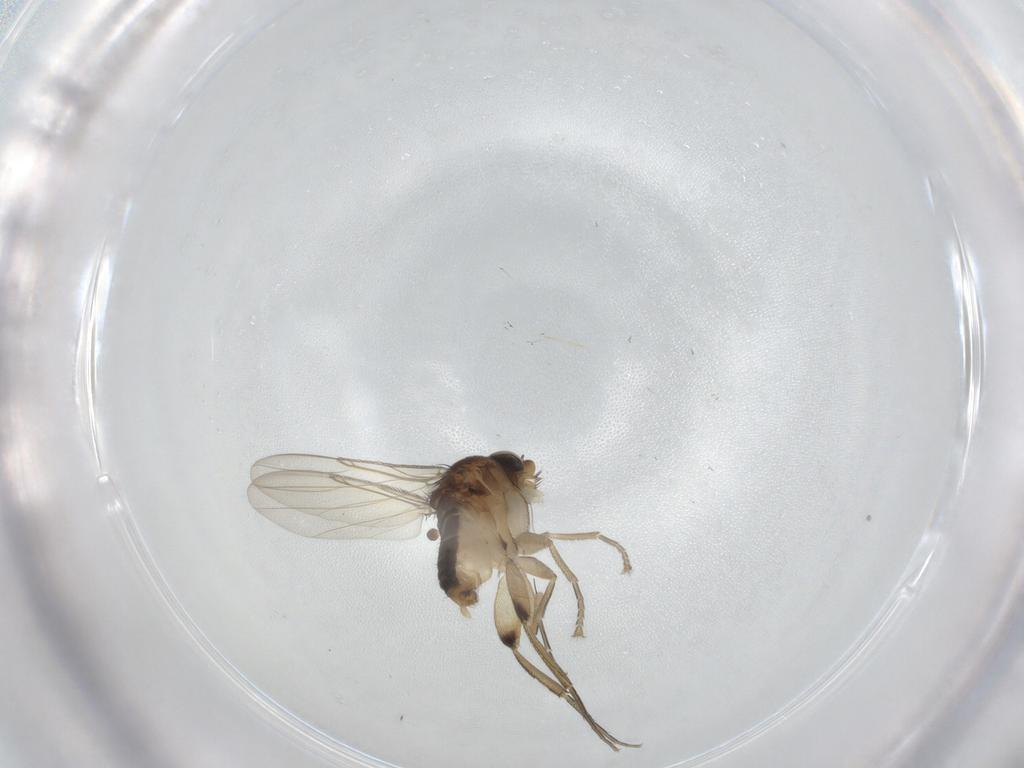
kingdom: Animalia
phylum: Arthropoda
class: Insecta
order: Diptera
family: Phoridae
